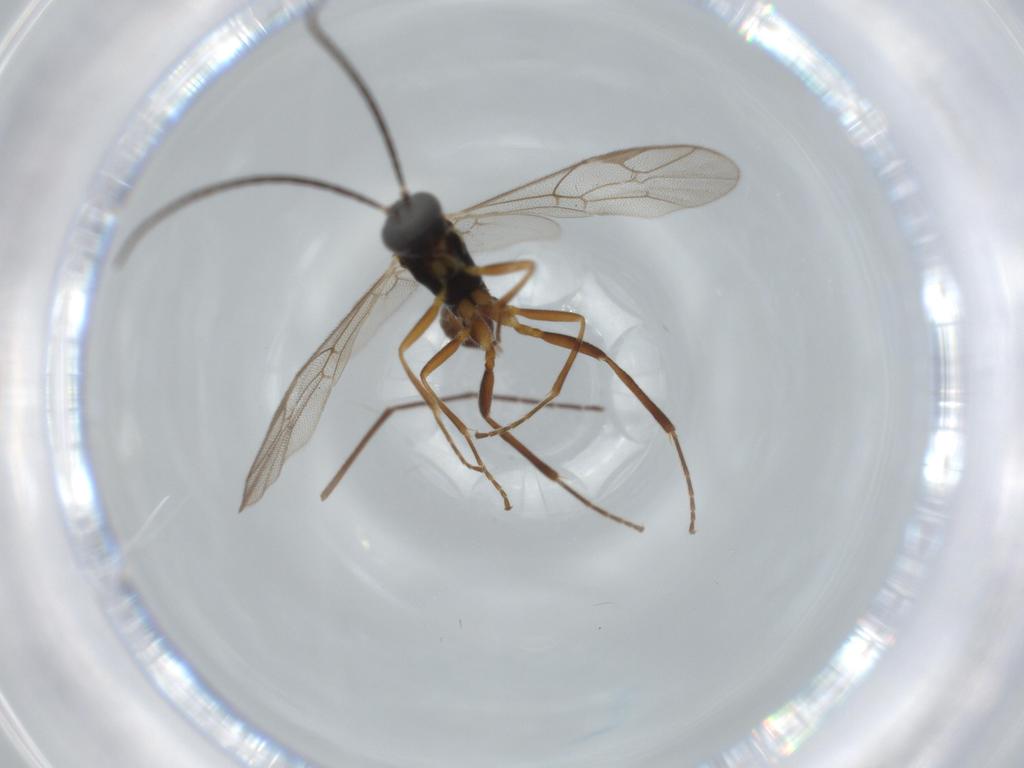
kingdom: Animalia
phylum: Arthropoda
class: Insecta
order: Hymenoptera
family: Ichneumonidae
